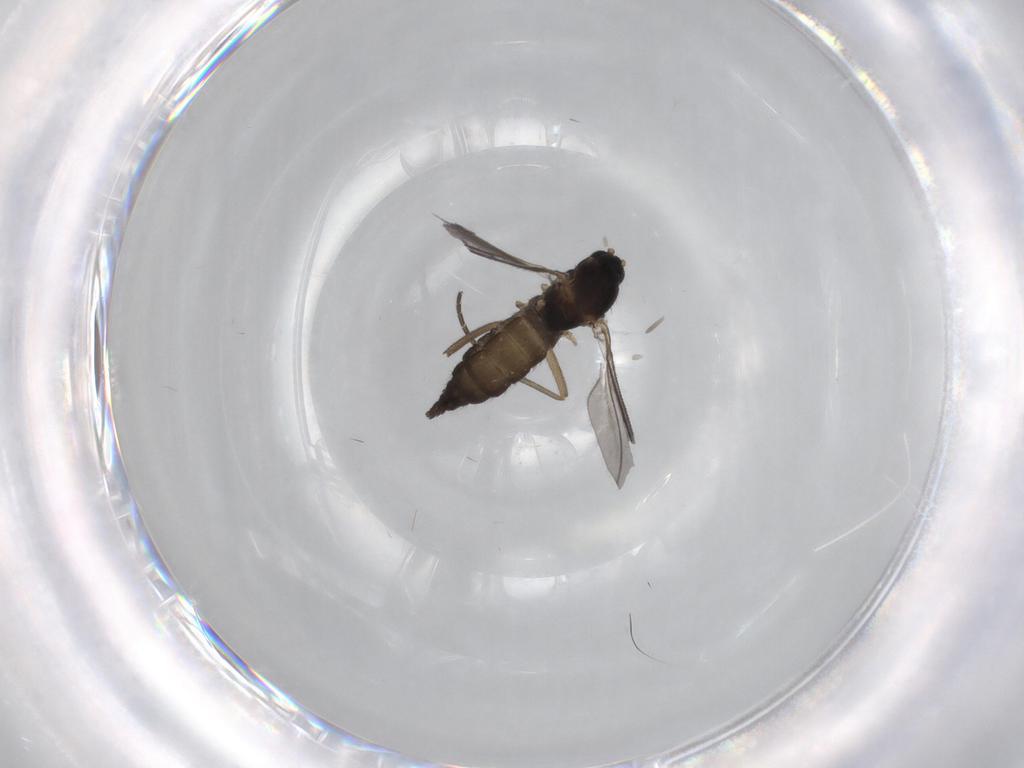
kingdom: Animalia
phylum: Arthropoda
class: Insecta
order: Diptera
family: Sciaridae
